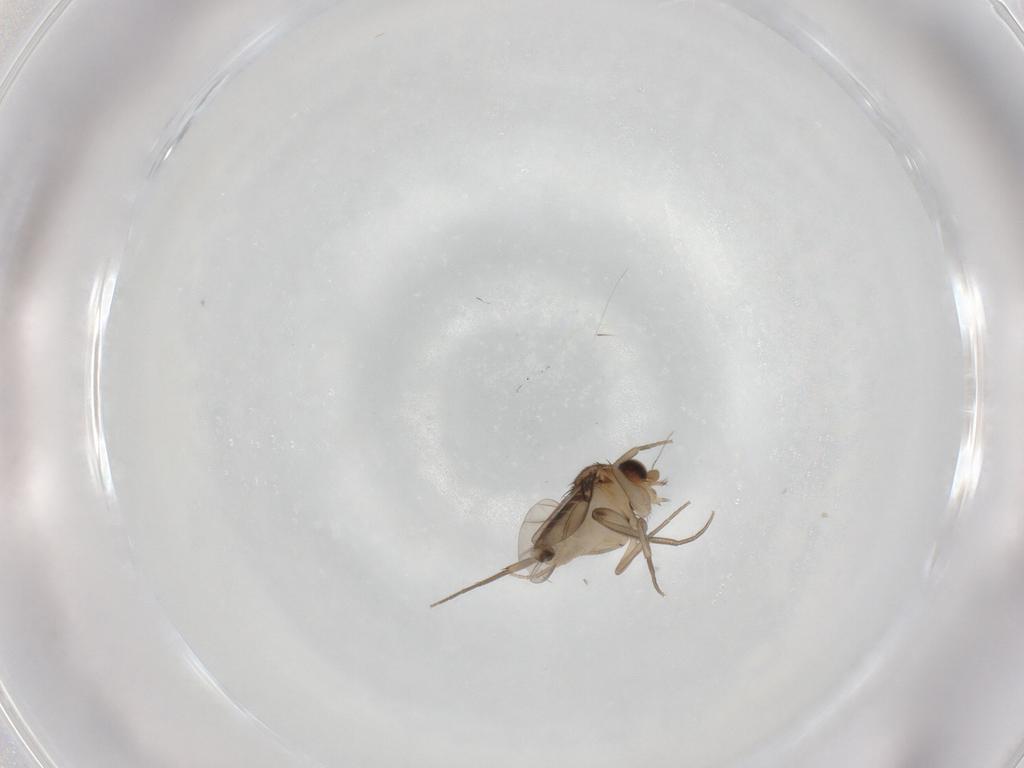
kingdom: Animalia
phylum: Arthropoda
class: Insecta
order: Diptera
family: Phoridae
